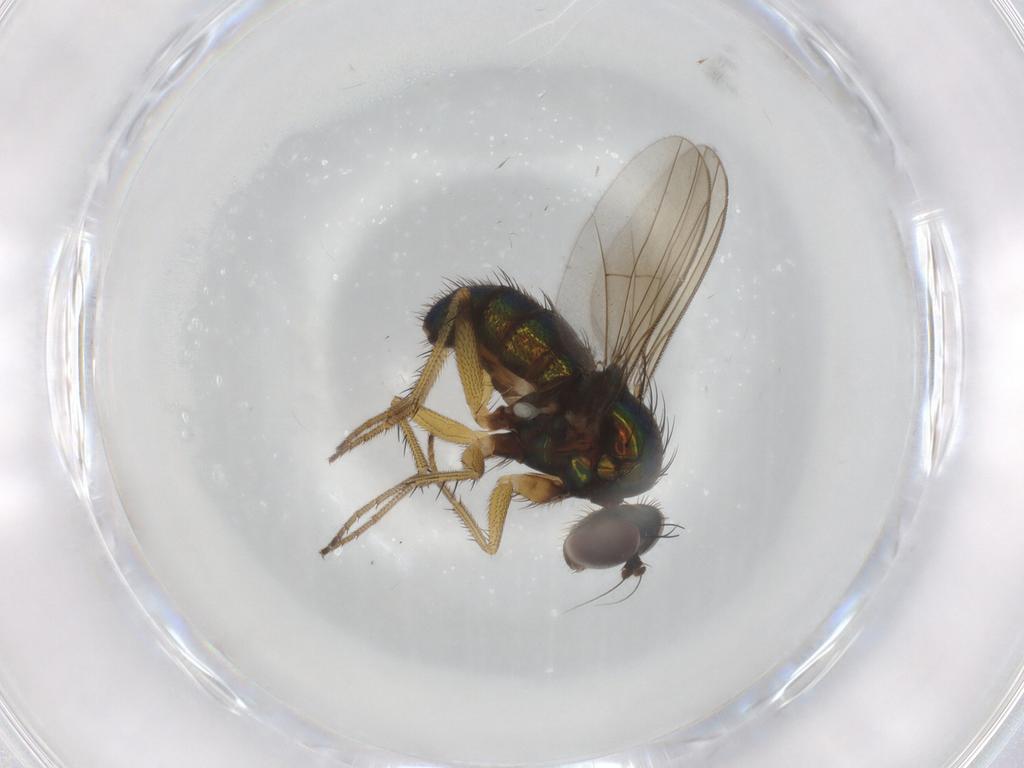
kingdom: Animalia
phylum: Arthropoda
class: Insecta
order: Diptera
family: Dolichopodidae
